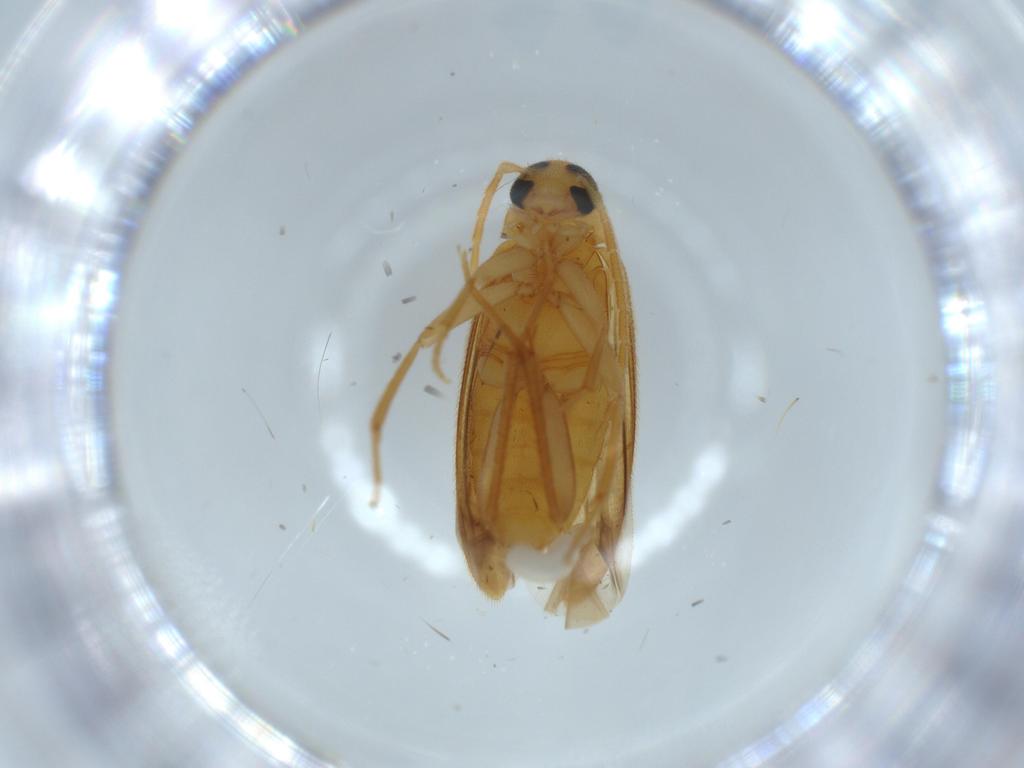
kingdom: Animalia
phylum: Arthropoda
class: Insecta
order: Coleoptera
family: Scraptiidae
